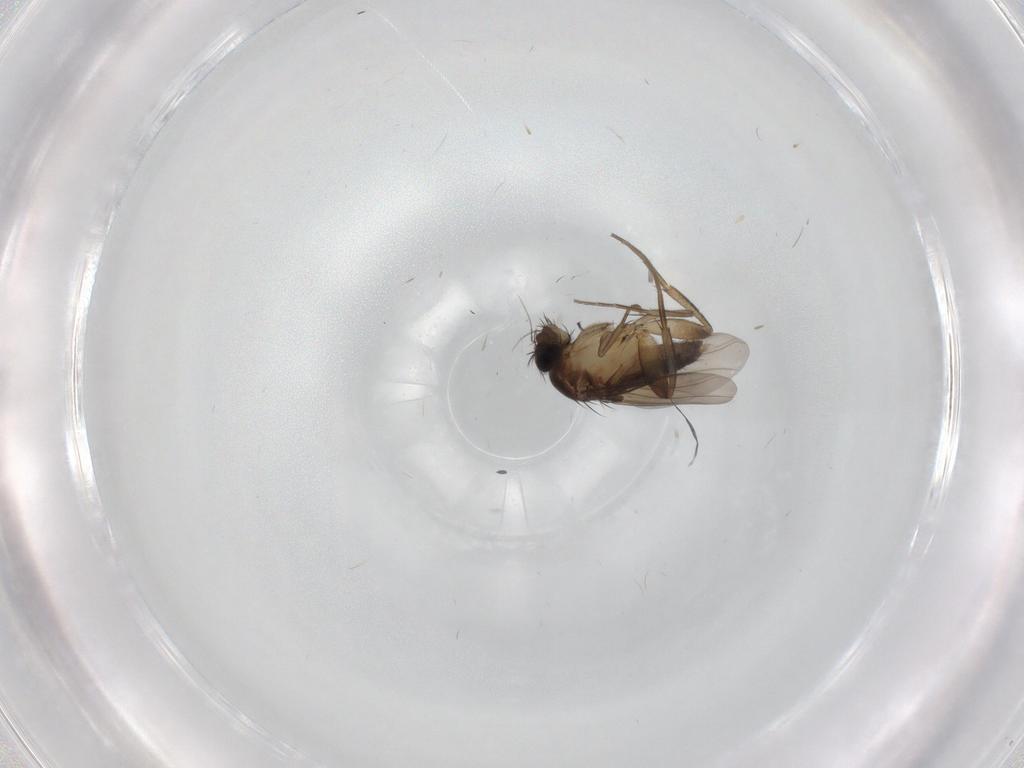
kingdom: Animalia
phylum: Arthropoda
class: Insecta
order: Diptera
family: Phoridae
